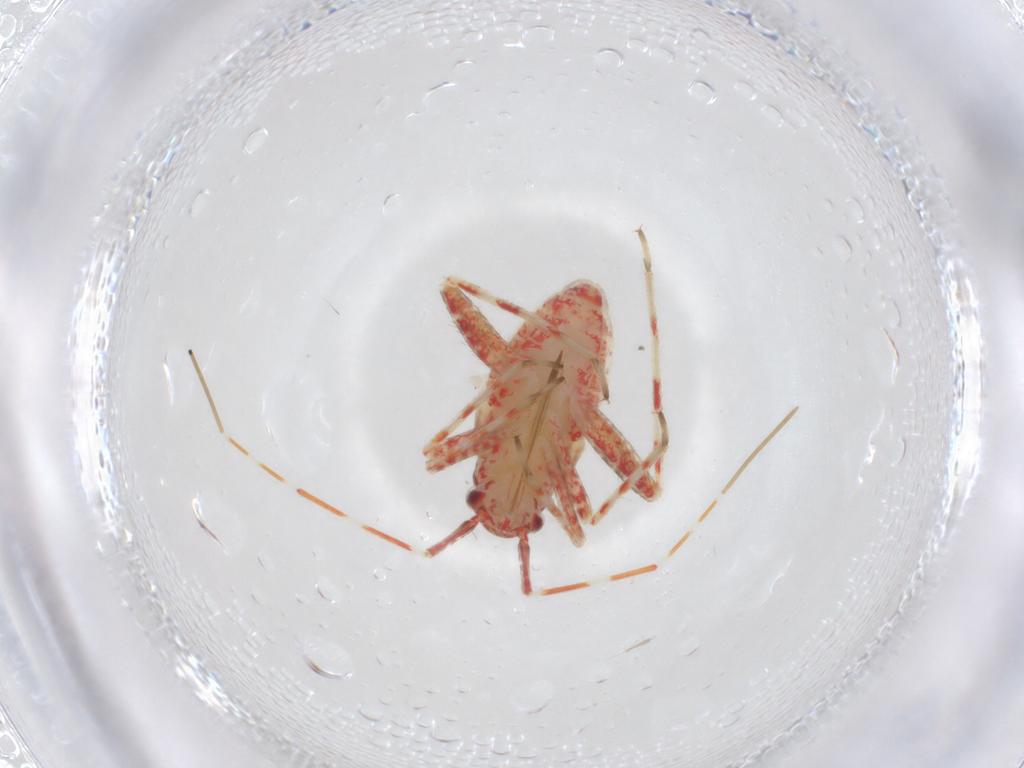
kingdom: Animalia
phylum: Arthropoda
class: Insecta
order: Hemiptera
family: Miridae
